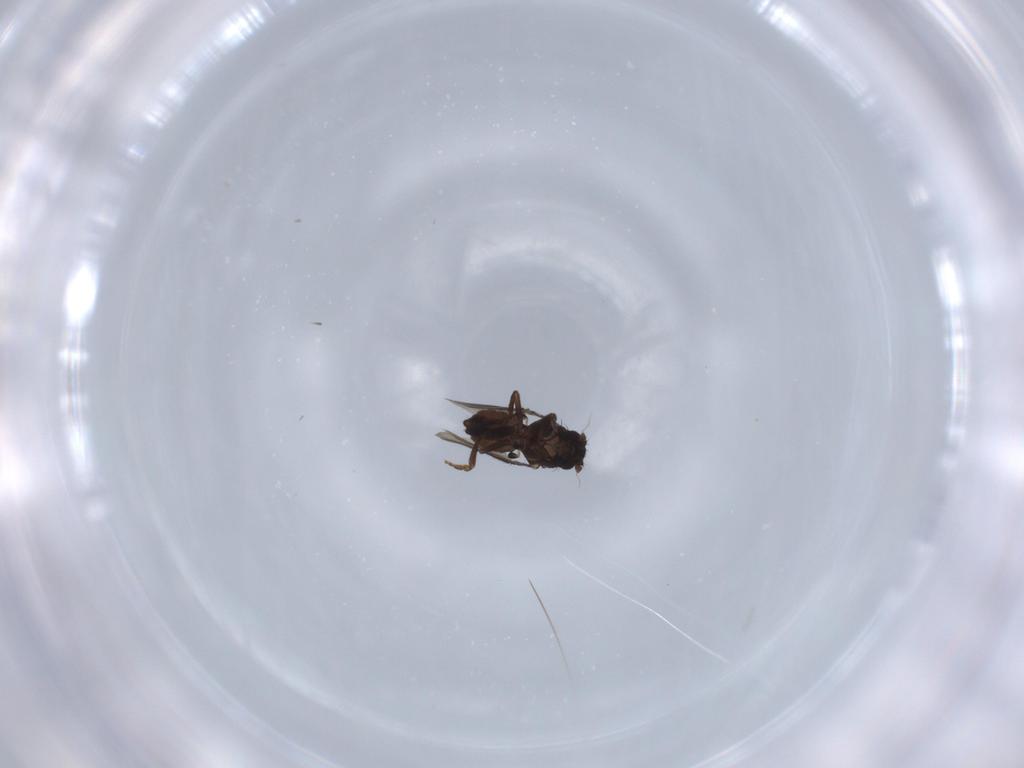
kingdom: Animalia
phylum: Arthropoda
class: Insecta
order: Diptera
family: Sphaeroceridae
